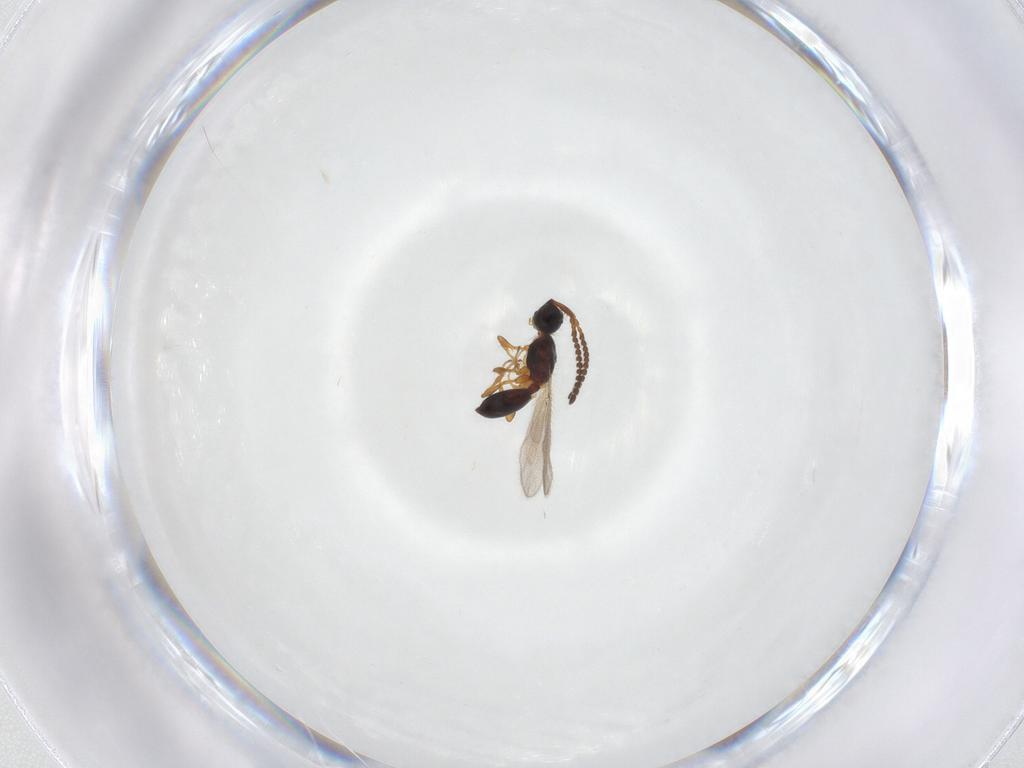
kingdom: Animalia
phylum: Arthropoda
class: Insecta
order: Hymenoptera
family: Diapriidae
